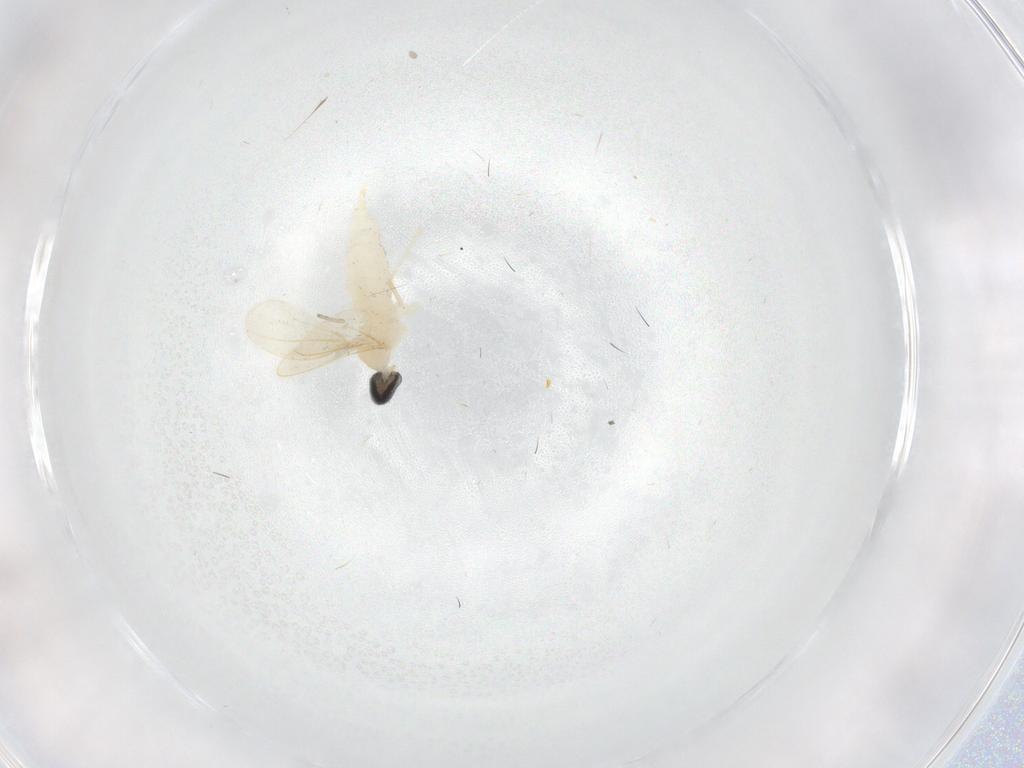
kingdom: Animalia
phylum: Arthropoda
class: Insecta
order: Diptera
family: Cecidomyiidae
